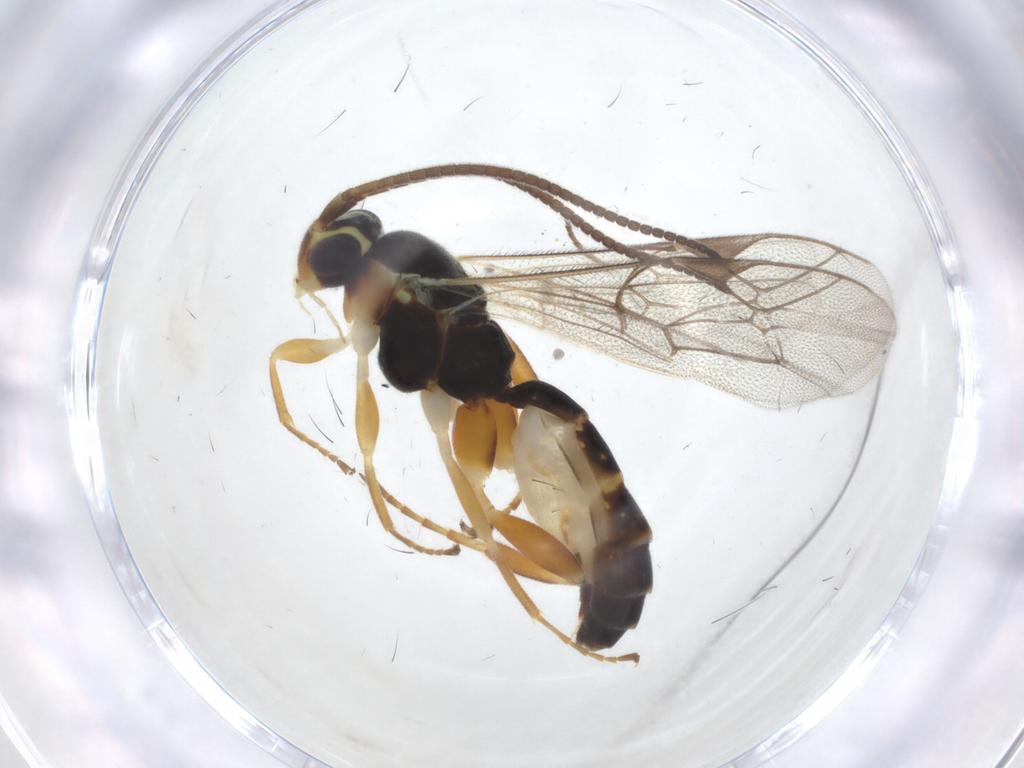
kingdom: Animalia
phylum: Arthropoda
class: Insecta
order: Hymenoptera
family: Ichneumonidae
